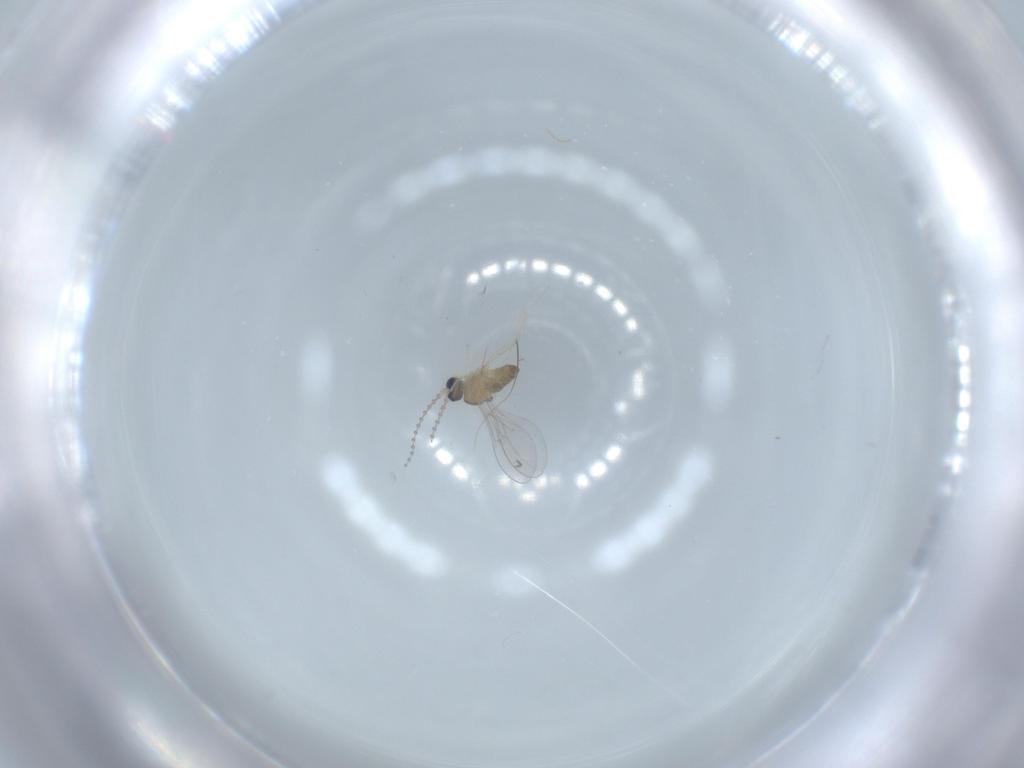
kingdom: Animalia
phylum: Arthropoda
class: Insecta
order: Diptera
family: Cecidomyiidae
